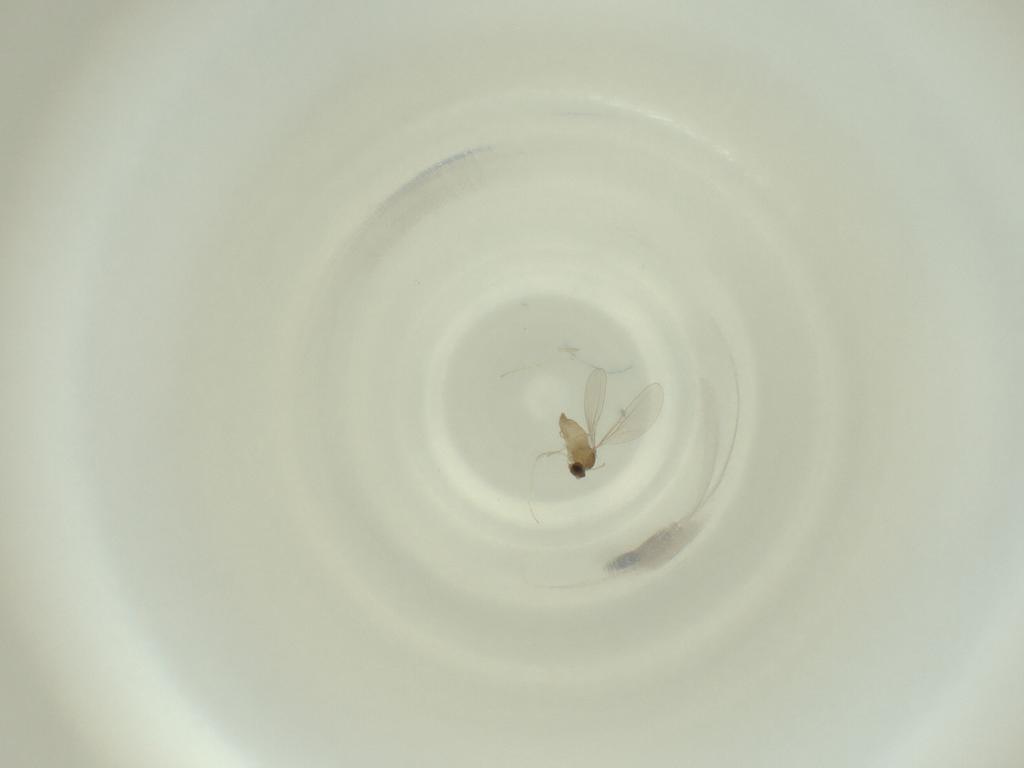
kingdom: Animalia
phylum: Arthropoda
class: Insecta
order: Diptera
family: Cecidomyiidae
